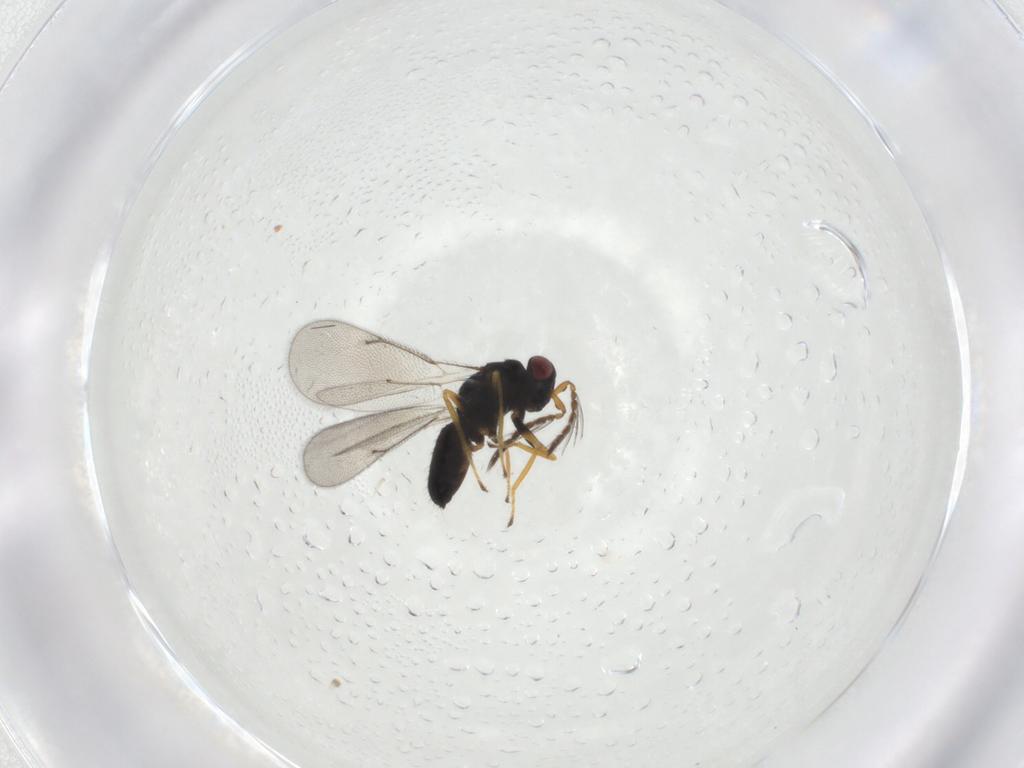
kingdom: Animalia
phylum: Arthropoda
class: Insecta
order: Hymenoptera
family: Eulophidae
